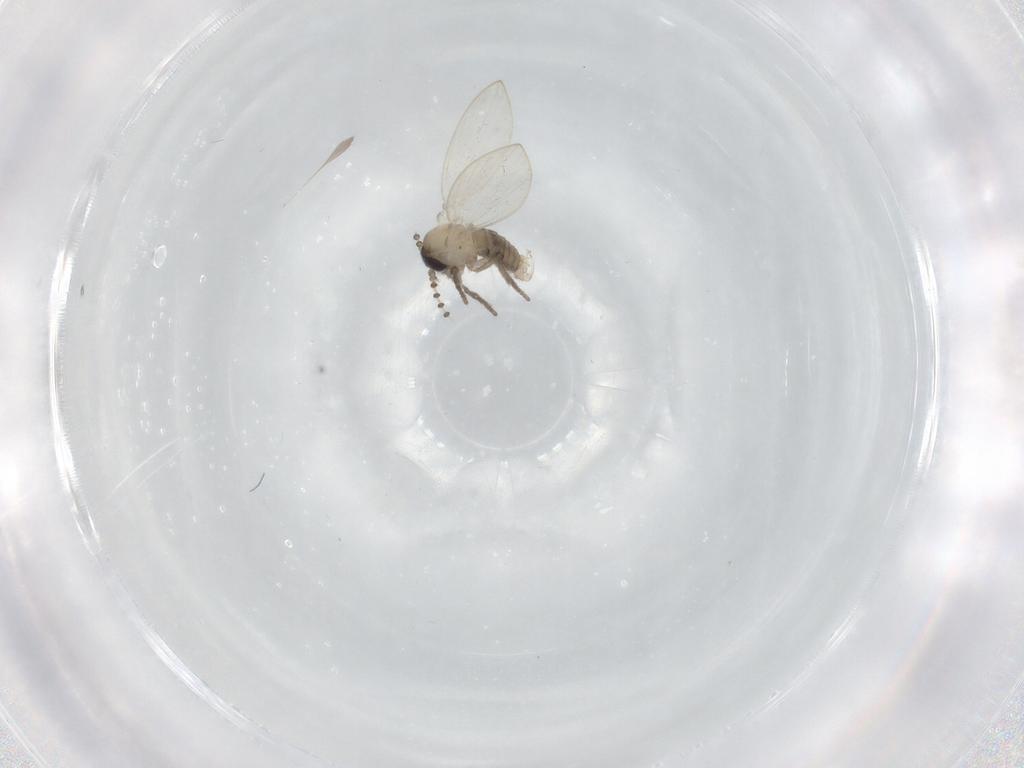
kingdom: Animalia
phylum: Arthropoda
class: Insecta
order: Diptera
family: Psychodidae
